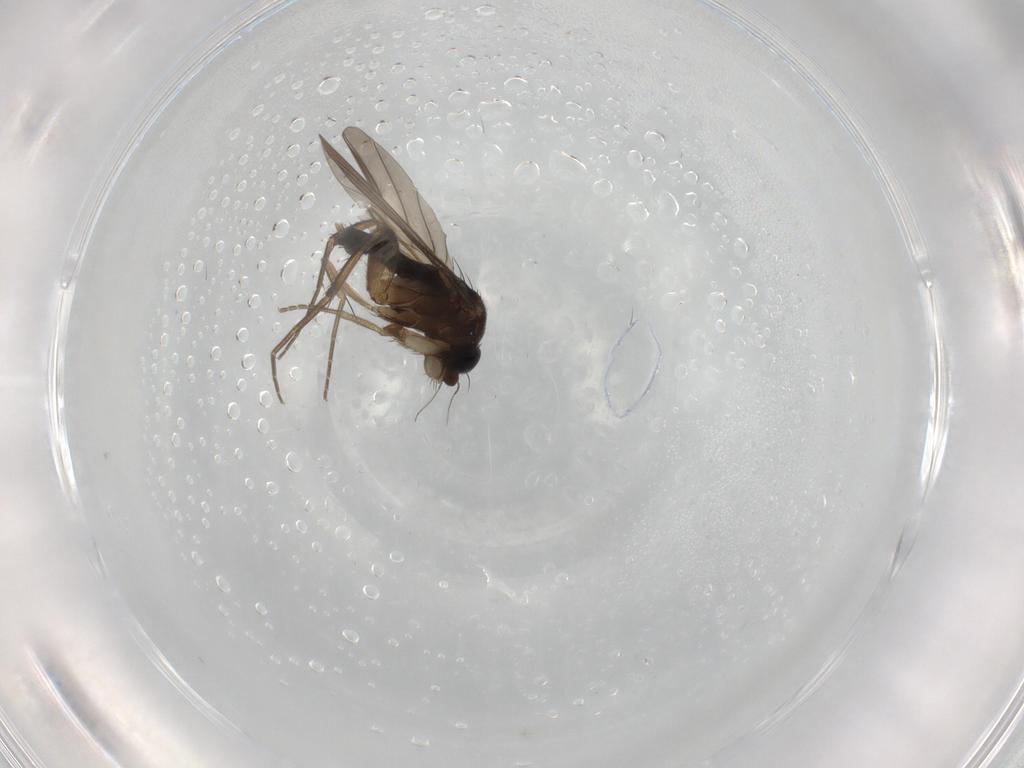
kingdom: Animalia
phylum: Arthropoda
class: Insecta
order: Diptera
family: Phoridae
